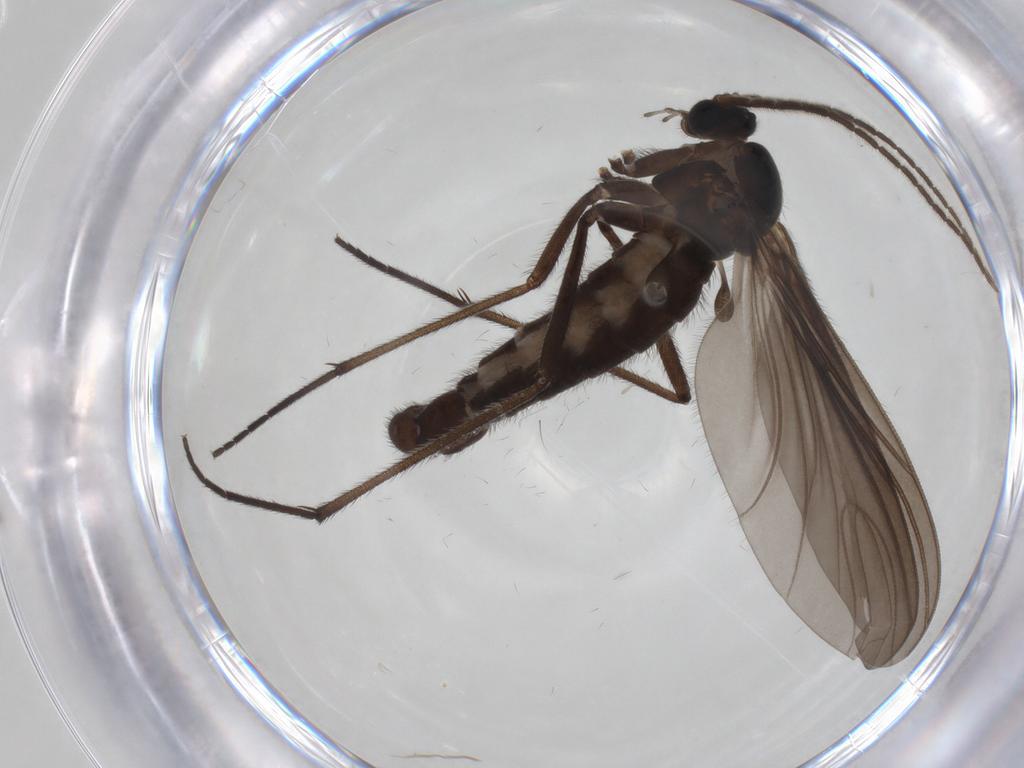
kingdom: Animalia
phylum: Arthropoda
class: Insecta
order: Diptera
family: Sciaridae
